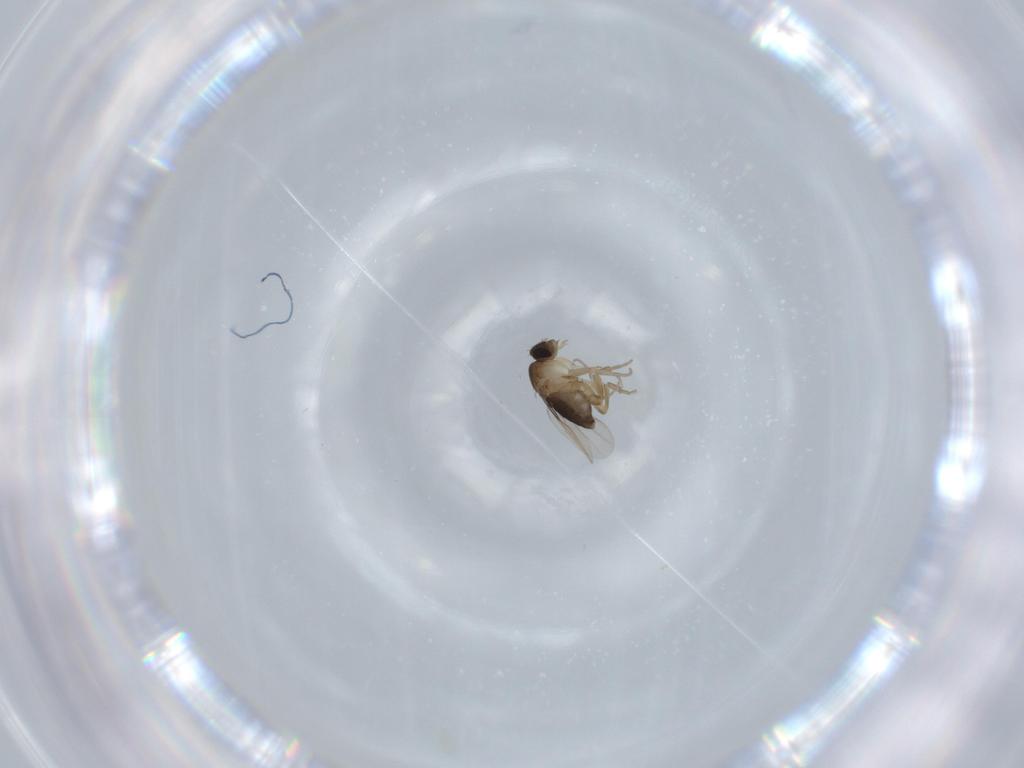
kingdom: Animalia
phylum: Arthropoda
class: Insecta
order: Diptera
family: Phoridae
